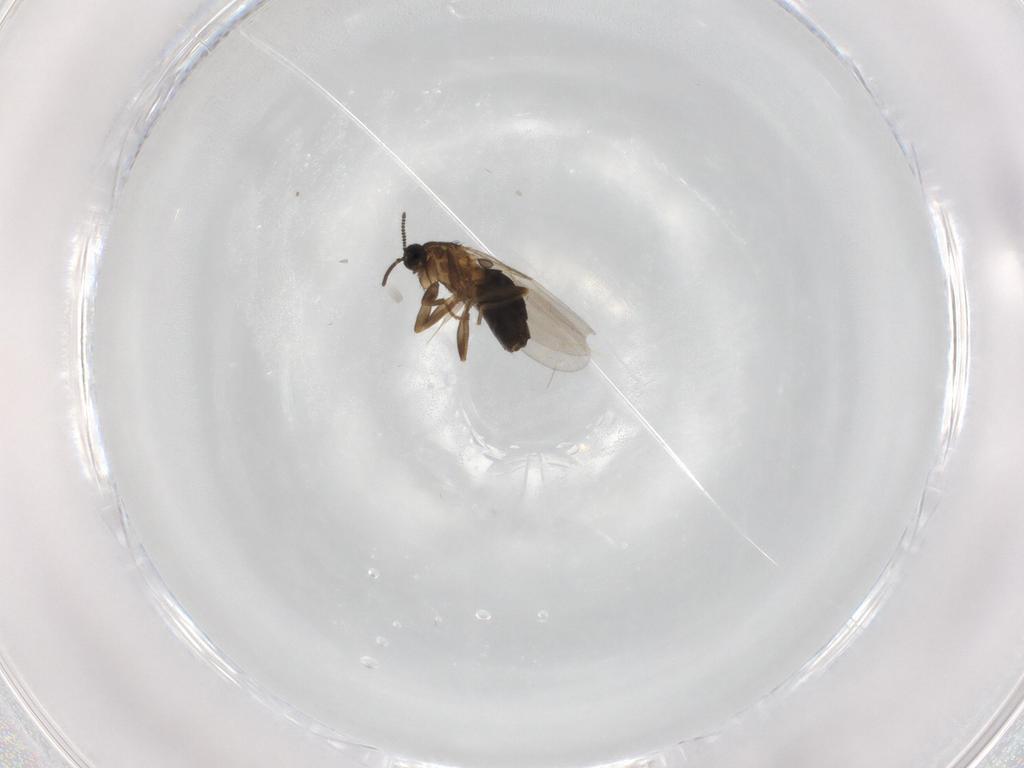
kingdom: Animalia
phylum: Arthropoda
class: Insecta
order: Diptera
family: Scatopsidae
